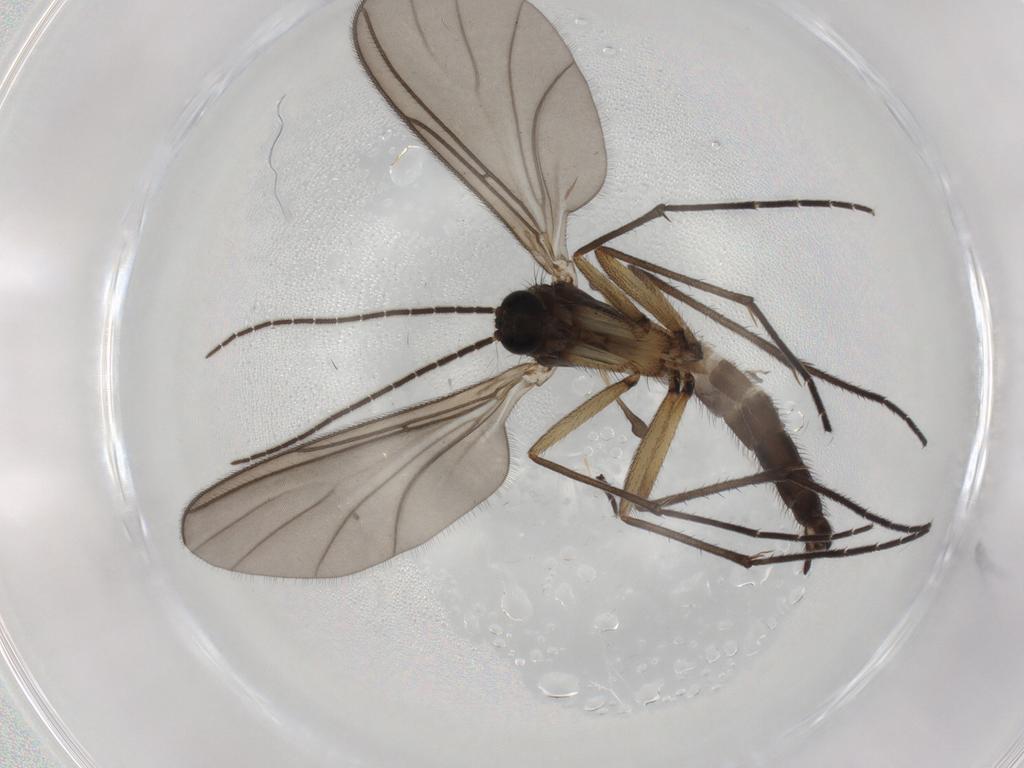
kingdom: Animalia
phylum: Arthropoda
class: Insecta
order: Diptera
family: Sciaridae
